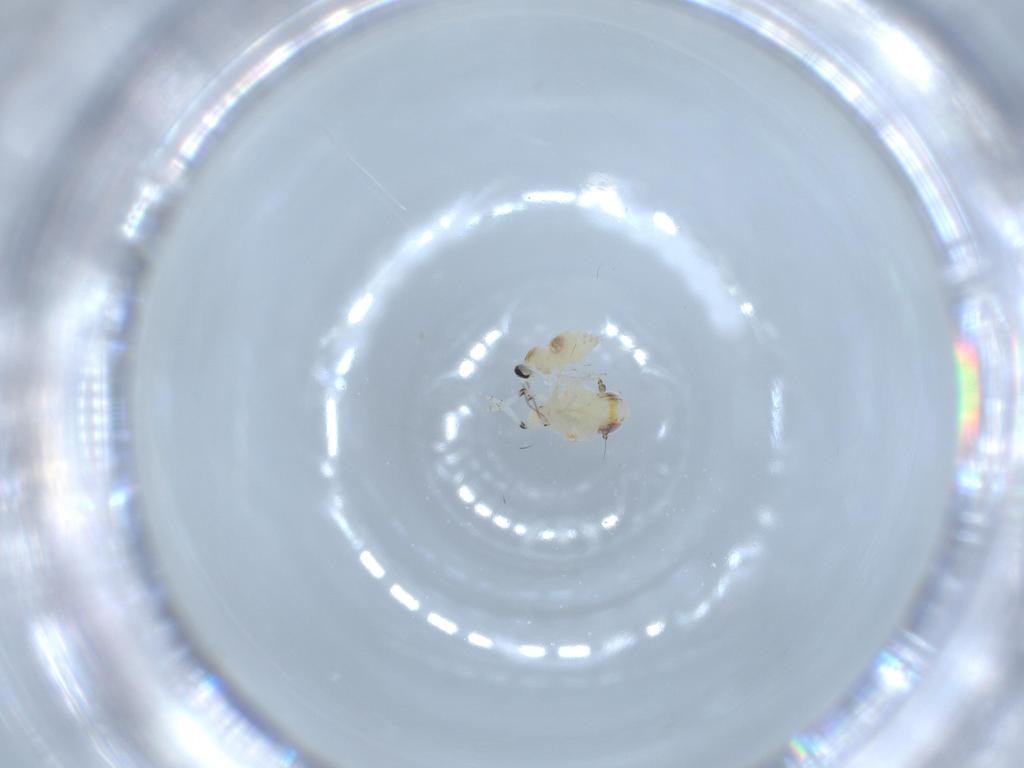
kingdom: Animalia
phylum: Arthropoda
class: Insecta
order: Diptera
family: Cecidomyiidae
